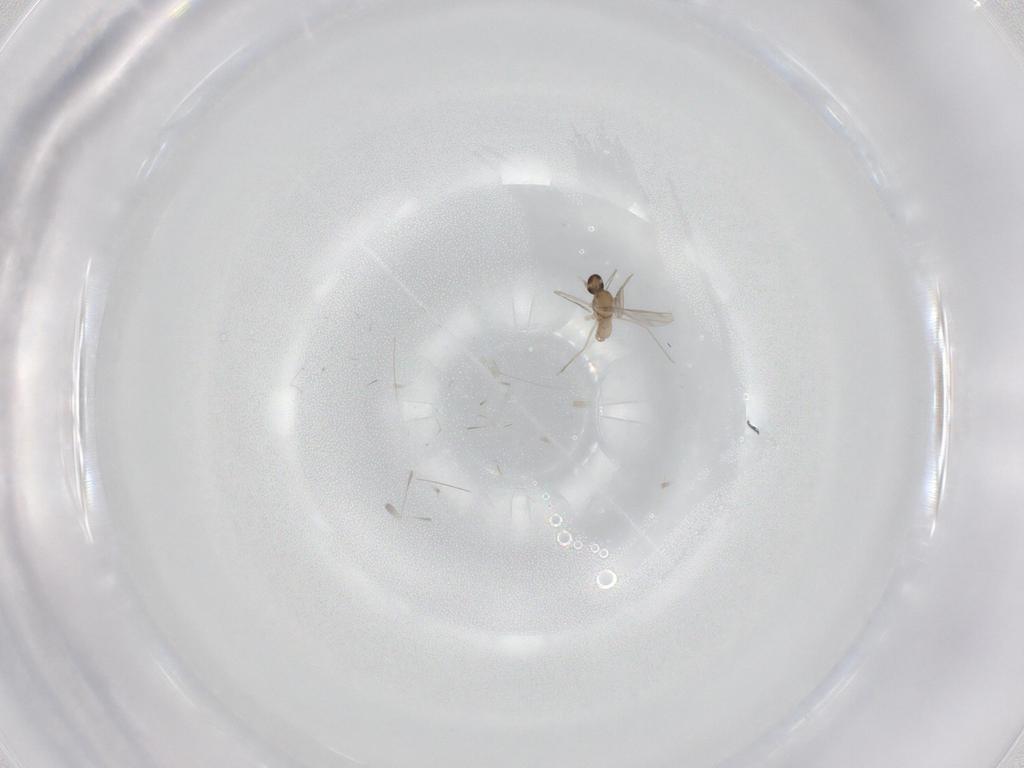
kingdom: Animalia
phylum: Arthropoda
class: Insecta
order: Diptera
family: Cecidomyiidae
